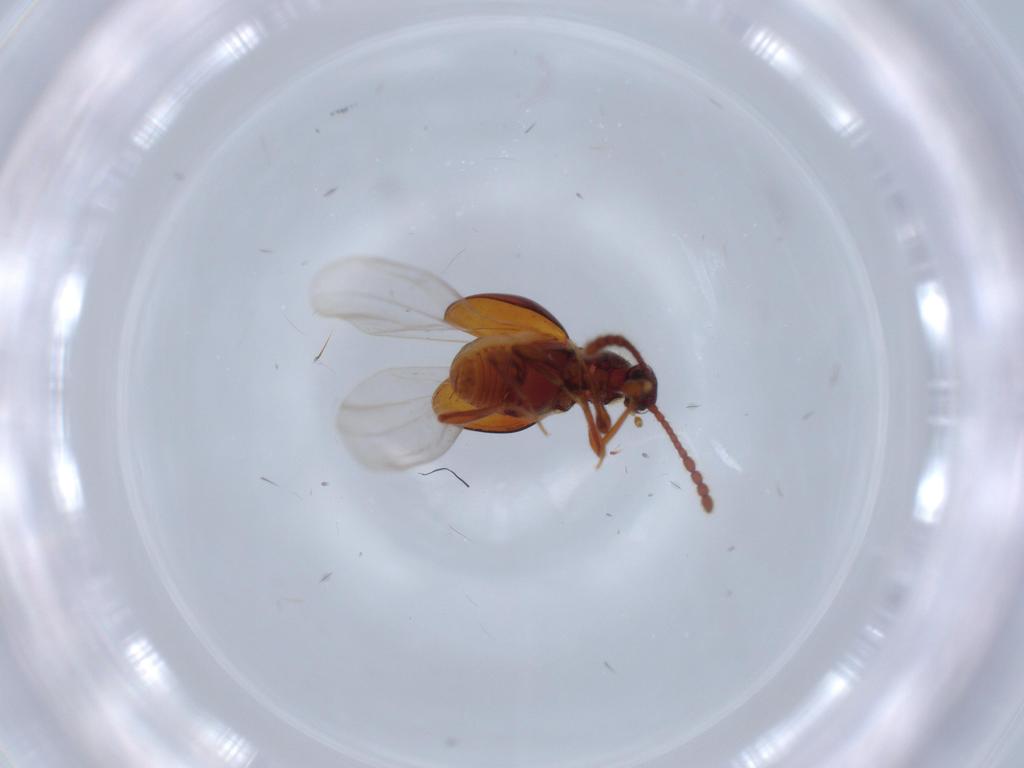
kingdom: Animalia
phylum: Arthropoda
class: Insecta
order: Coleoptera
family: Staphylinidae
